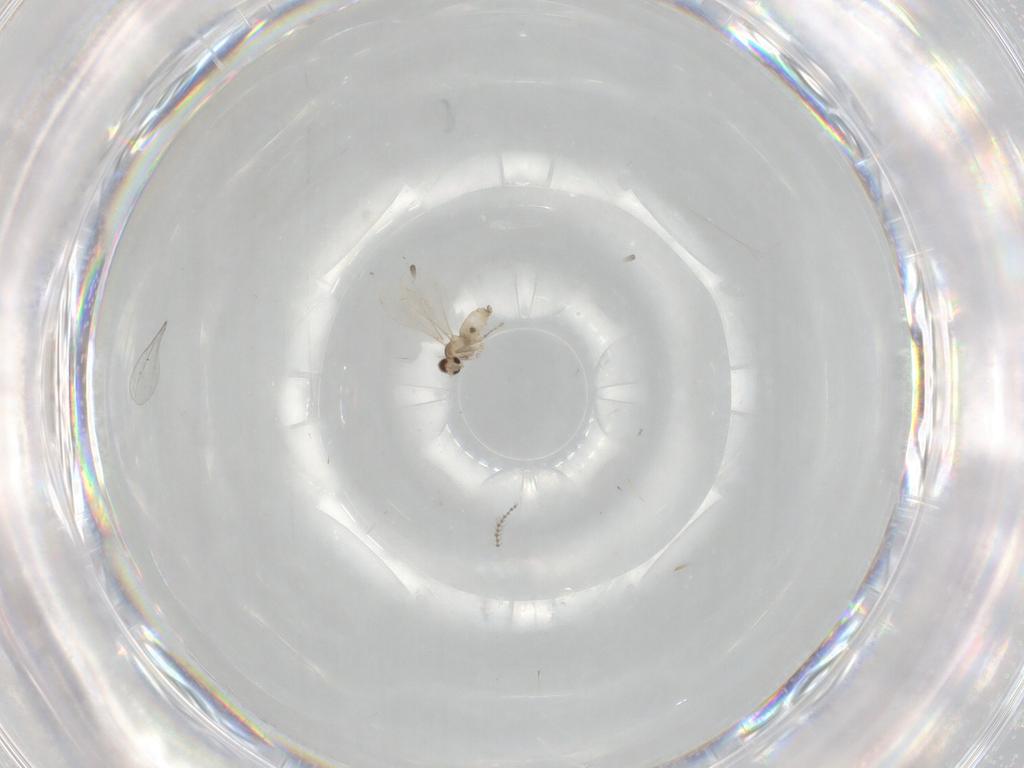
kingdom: Animalia
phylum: Arthropoda
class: Insecta
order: Diptera
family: Cecidomyiidae
